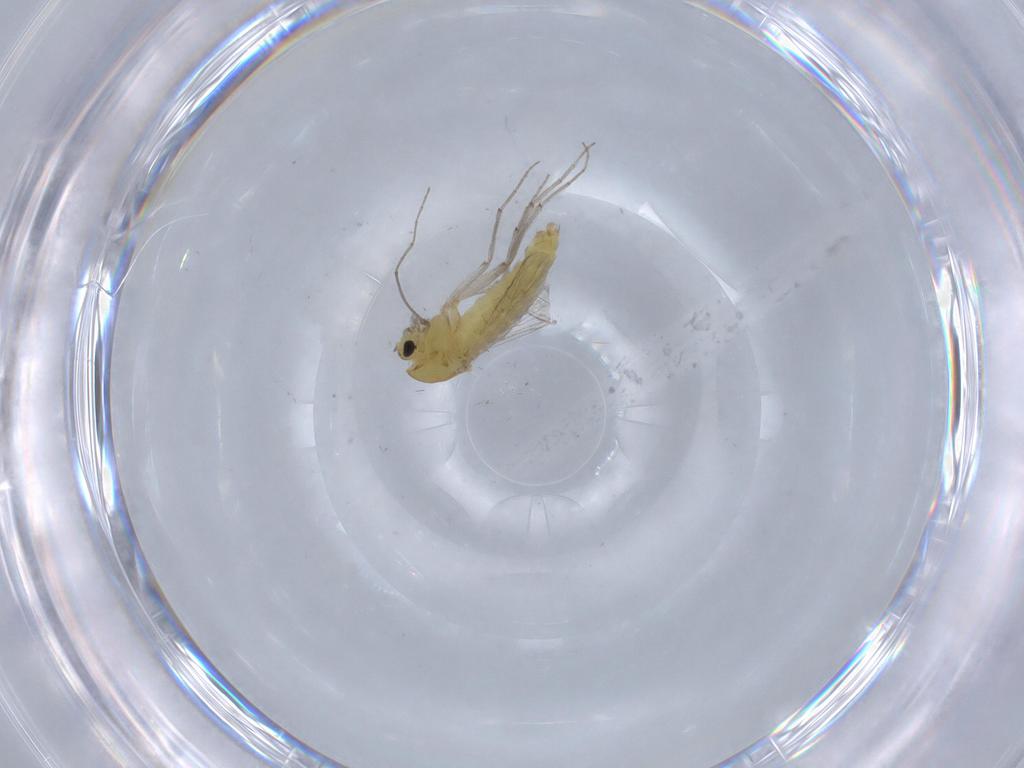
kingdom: Animalia
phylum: Arthropoda
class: Insecta
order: Diptera
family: Chironomidae
